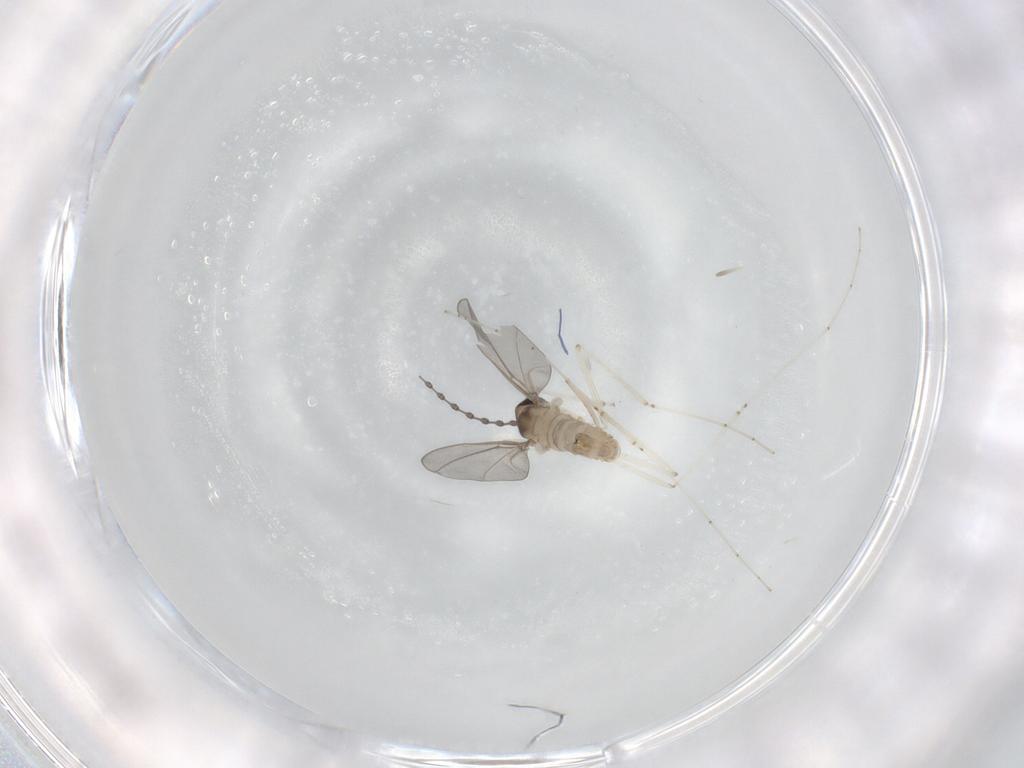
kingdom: Animalia
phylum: Arthropoda
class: Insecta
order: Diptera
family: Cecidomyiidae
